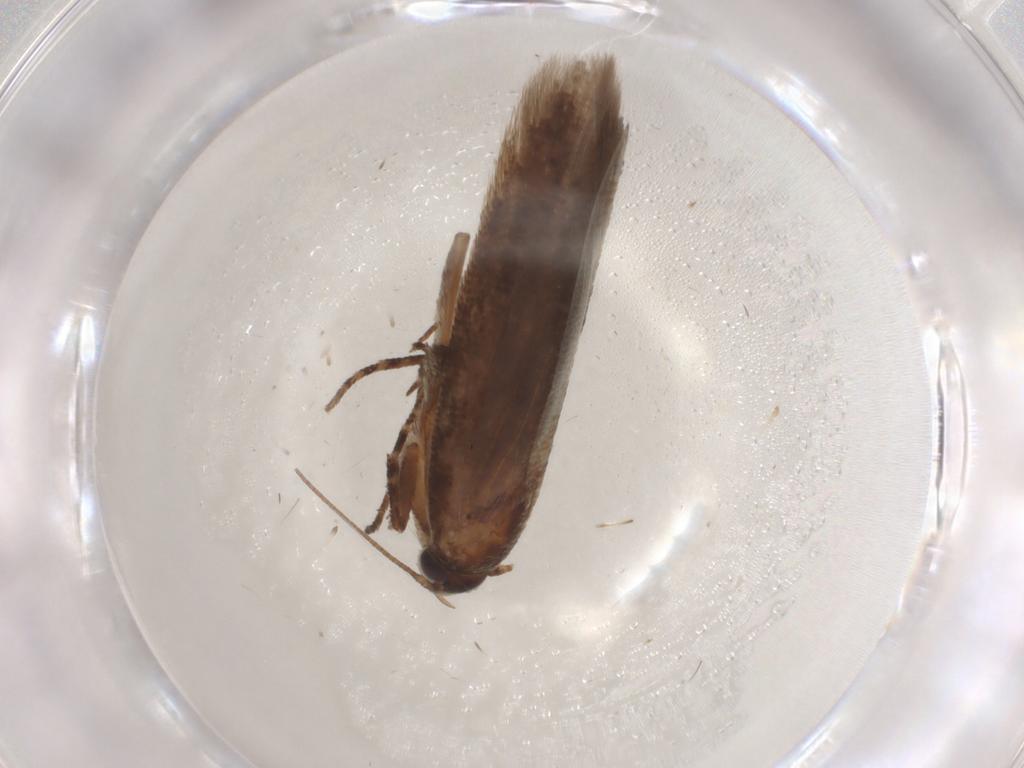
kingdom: Animalia
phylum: Arthropoda
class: Insecta
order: Lepidoptera
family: Gelechiidae
